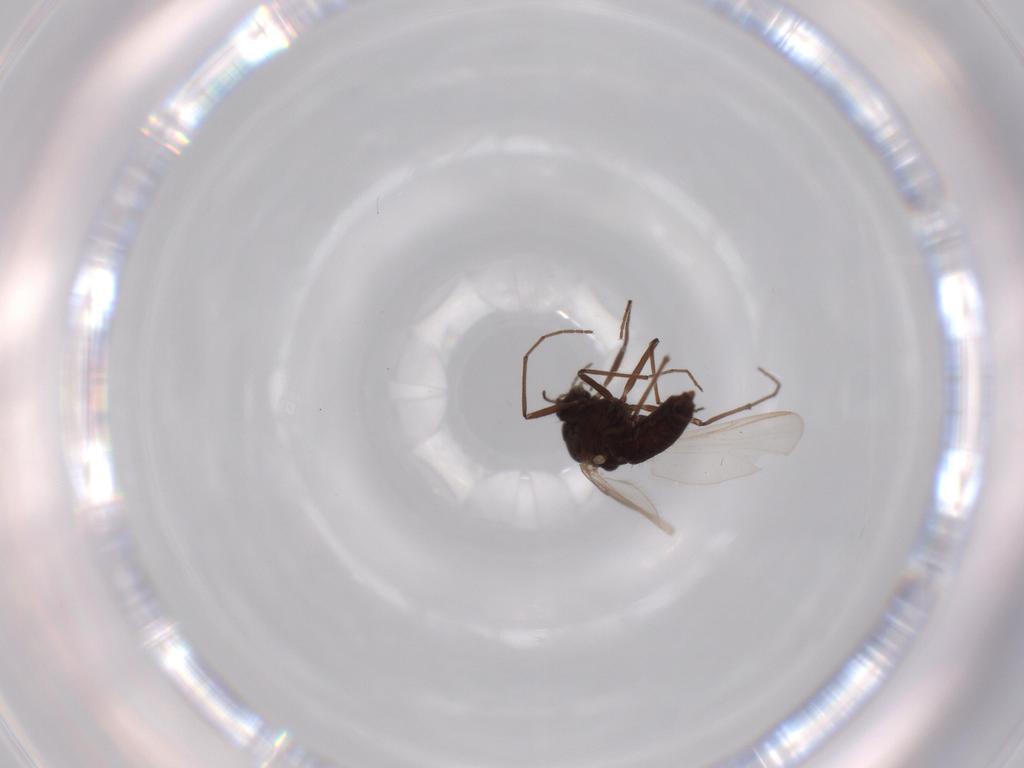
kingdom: Animalia
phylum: Arthropoda
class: Insecta
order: Diptera
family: Chironomidae
